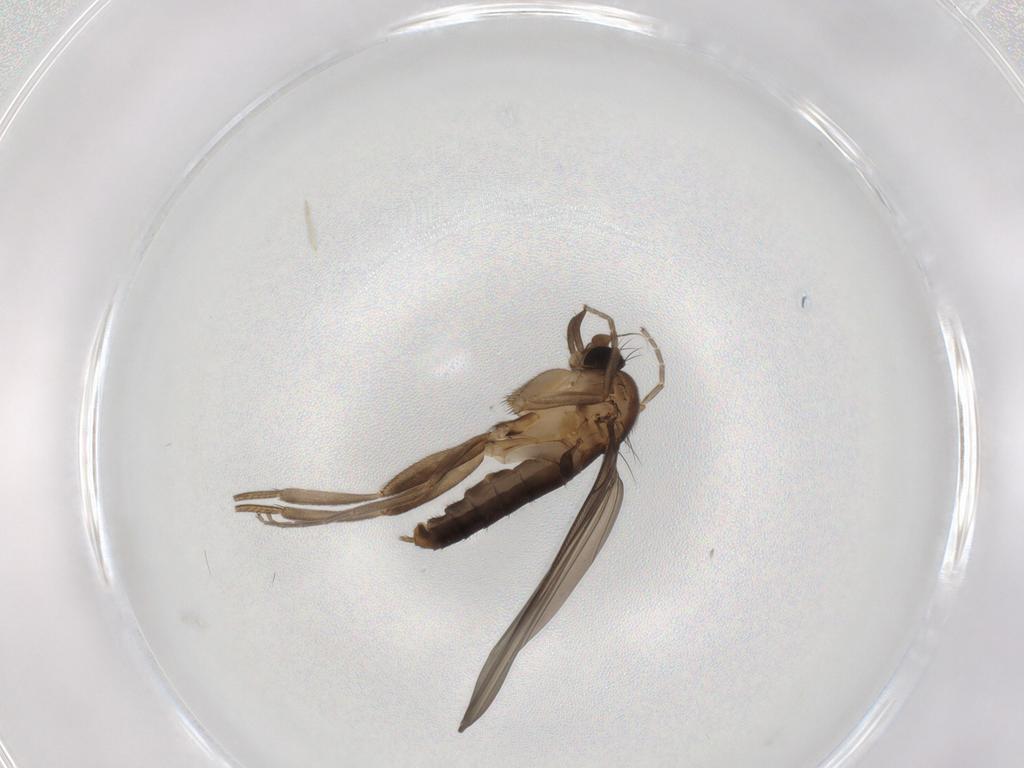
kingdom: Animalia
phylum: Arthropoda
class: Insecta
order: Diptera
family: Phoridae
